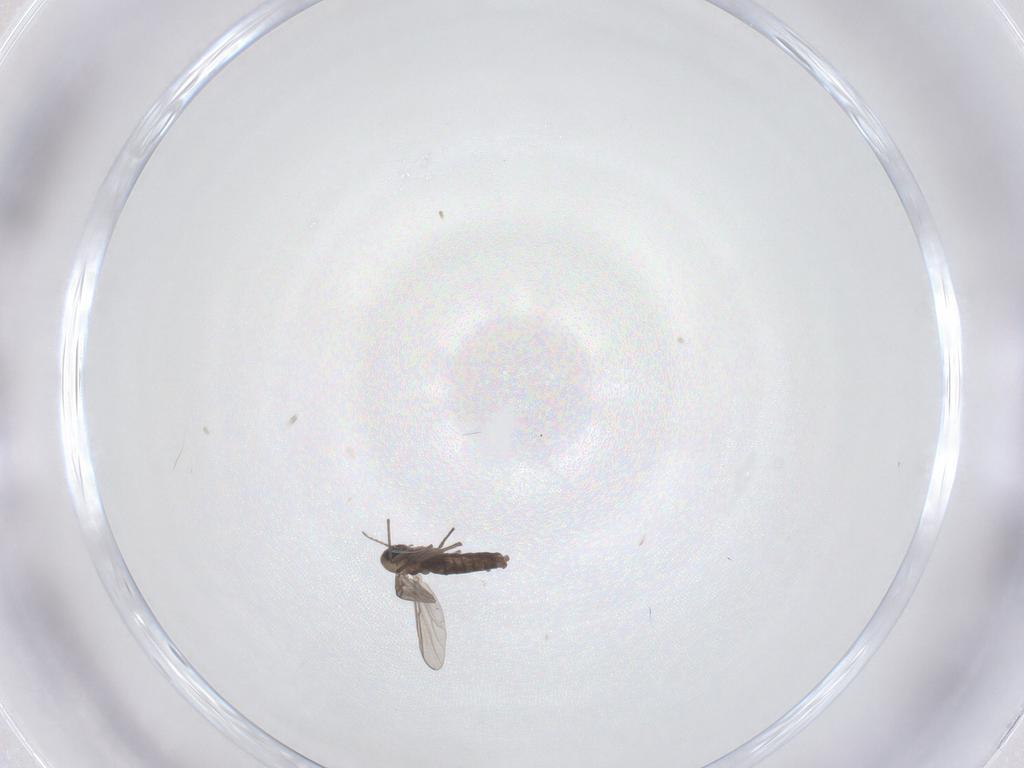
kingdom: Animalia
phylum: Arthropoda
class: Insecta
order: Diptera
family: Chironomidae
